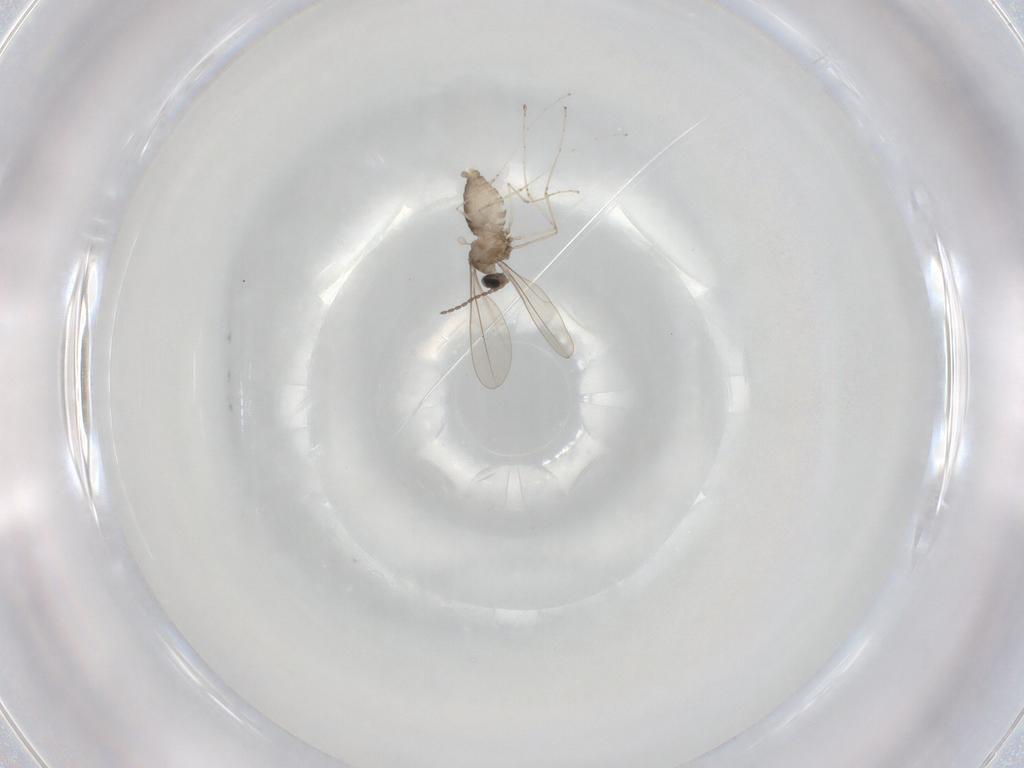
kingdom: Animalia
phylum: Arthropoda
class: Insecta
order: Diptera
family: Cecidomyiidae
